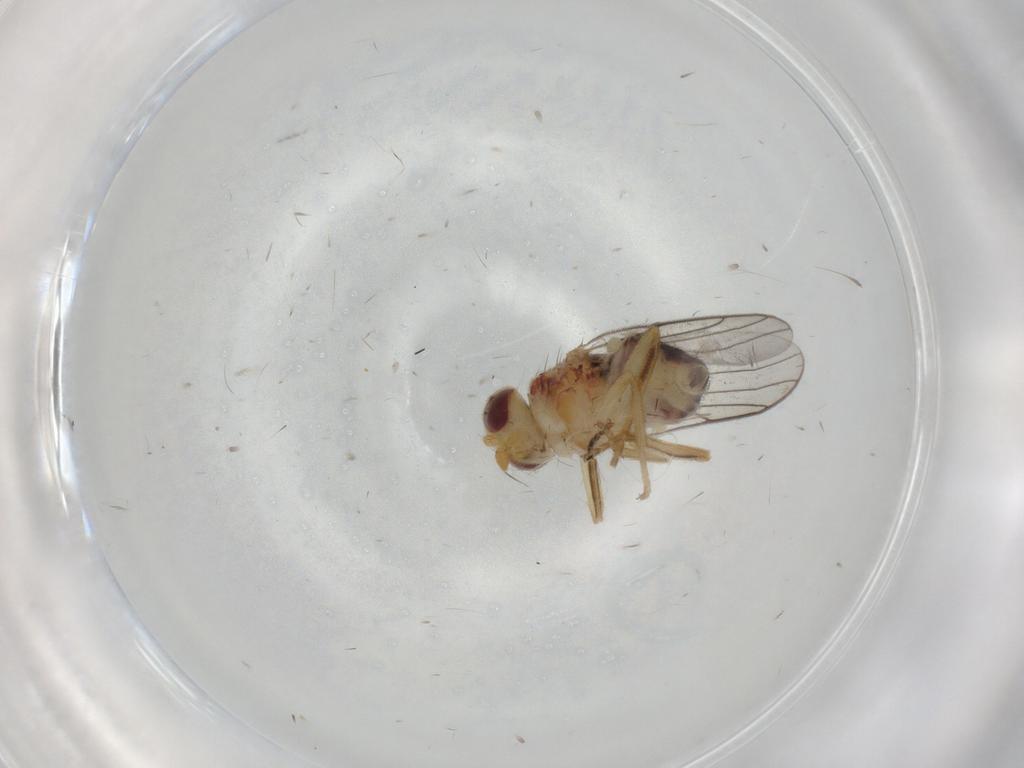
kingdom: Animalia
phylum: Arthropoda
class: Insecta
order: Diptera
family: Chloropidae
